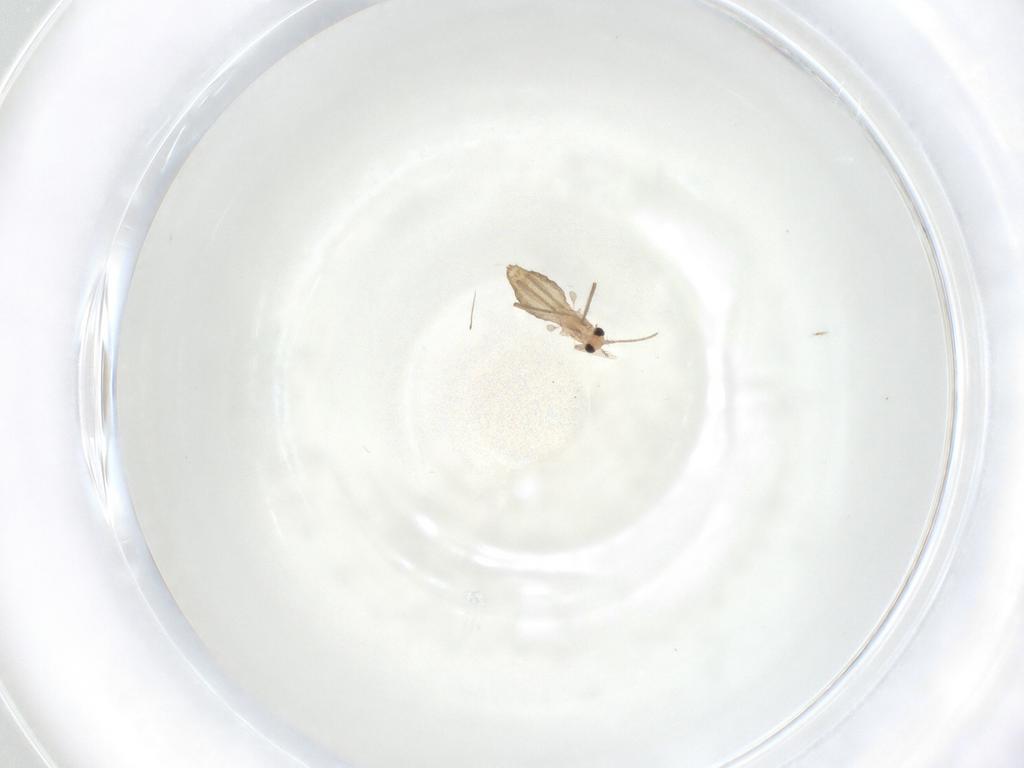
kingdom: Animalia
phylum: Arthropoda
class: Insecta
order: Diptera
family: Chironomidae
